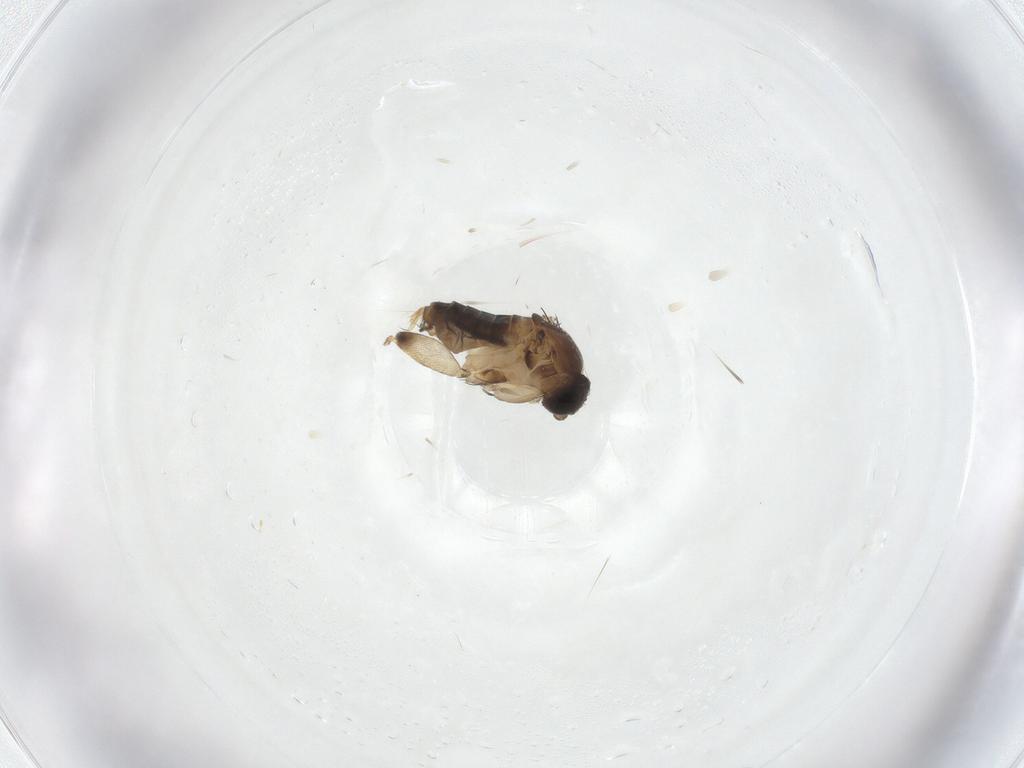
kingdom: Animalia
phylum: Arthropoda
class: Insecta
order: Diptera
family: Phoridae
